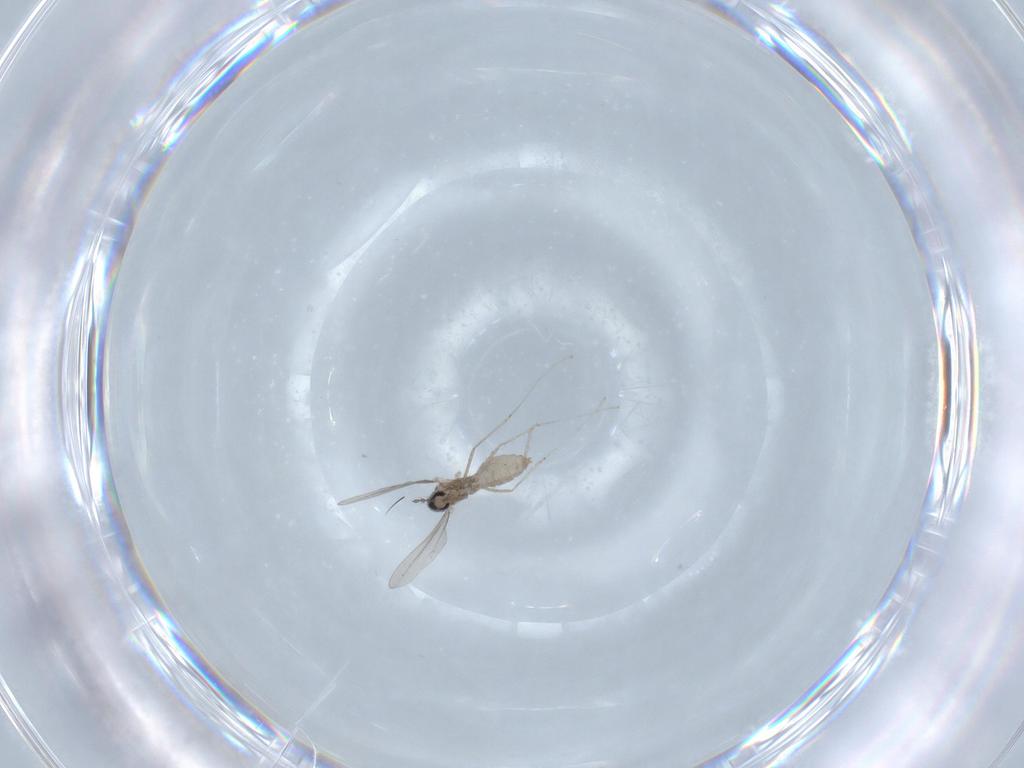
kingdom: Animalia
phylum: Arthropoda
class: Insecta
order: Diptera
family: Cecidomyiidae
